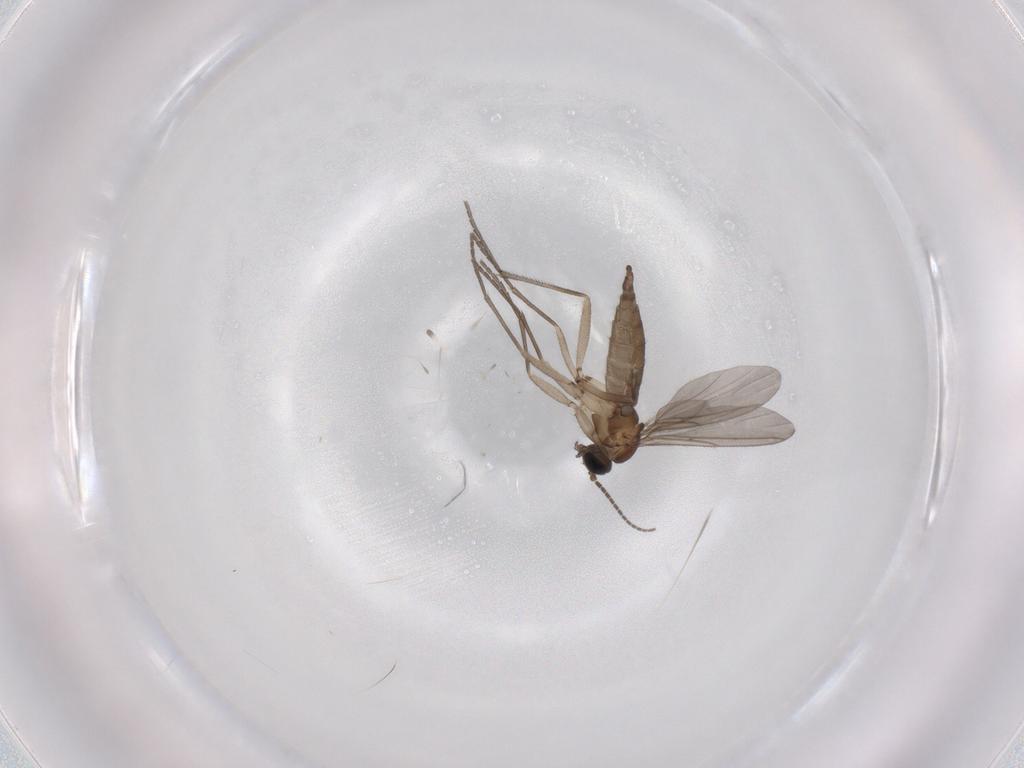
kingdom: Animalia
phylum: Arthropoda
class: Insecta
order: Diptera
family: Sciaridae
